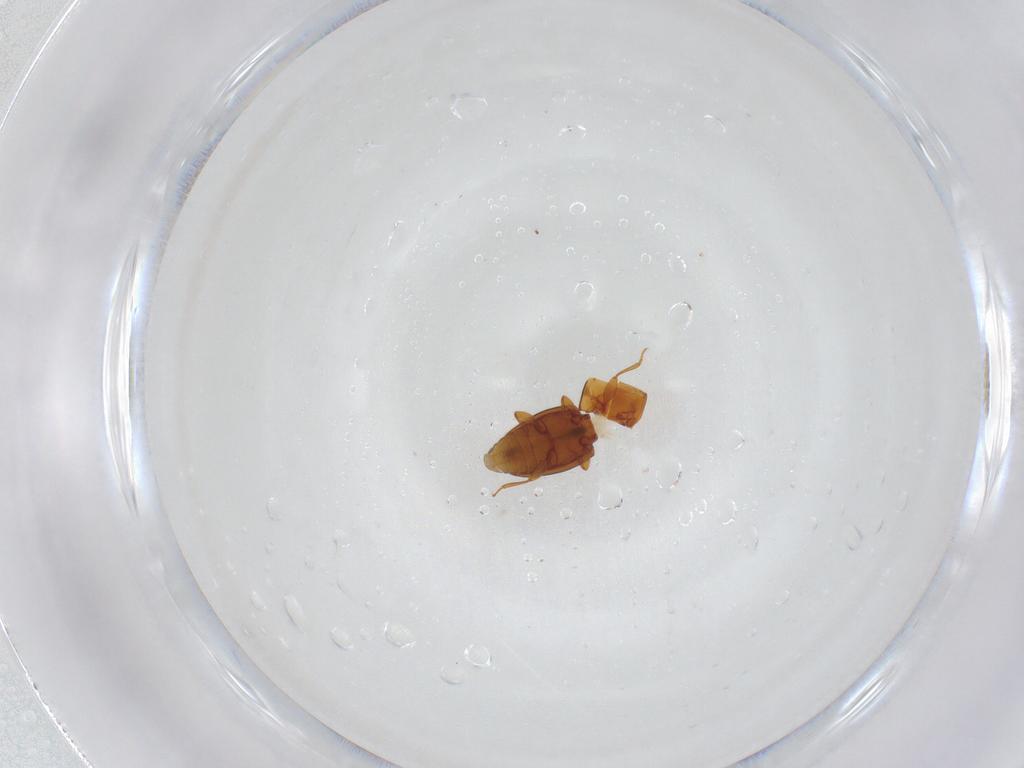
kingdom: Animalia
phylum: Arthropoda
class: Insecta
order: Coleoptera
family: Laemophloeidae
